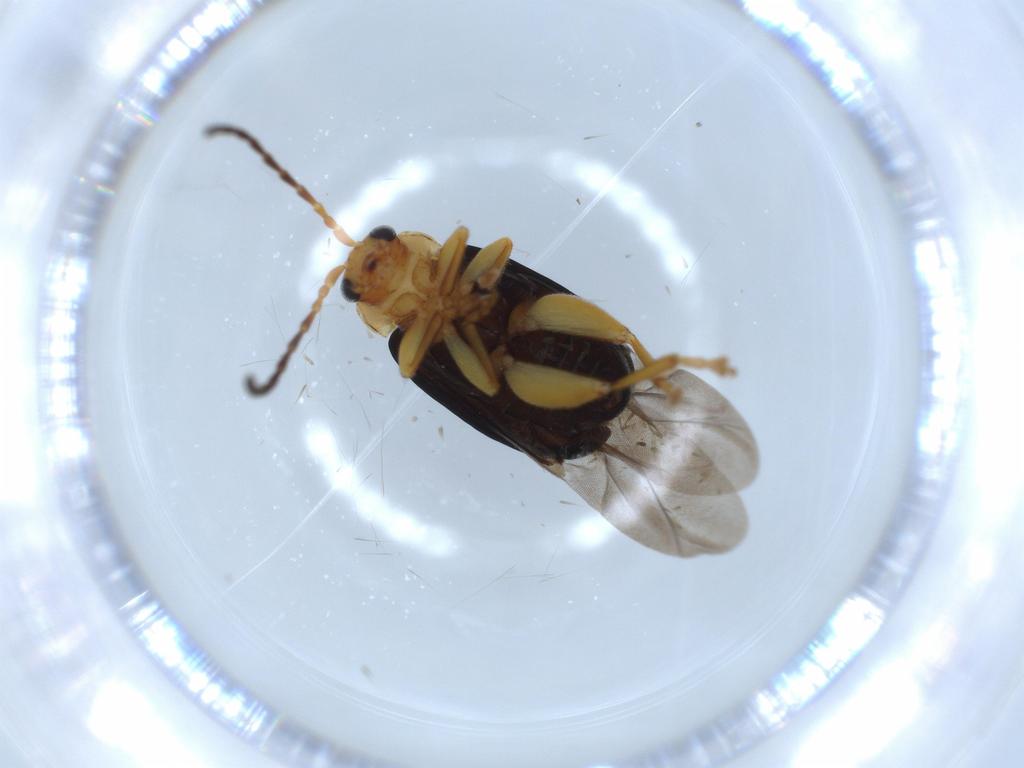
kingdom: Animalia
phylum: Arthropoda
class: Insecta
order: Coleoptera
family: Chrysomelidae
